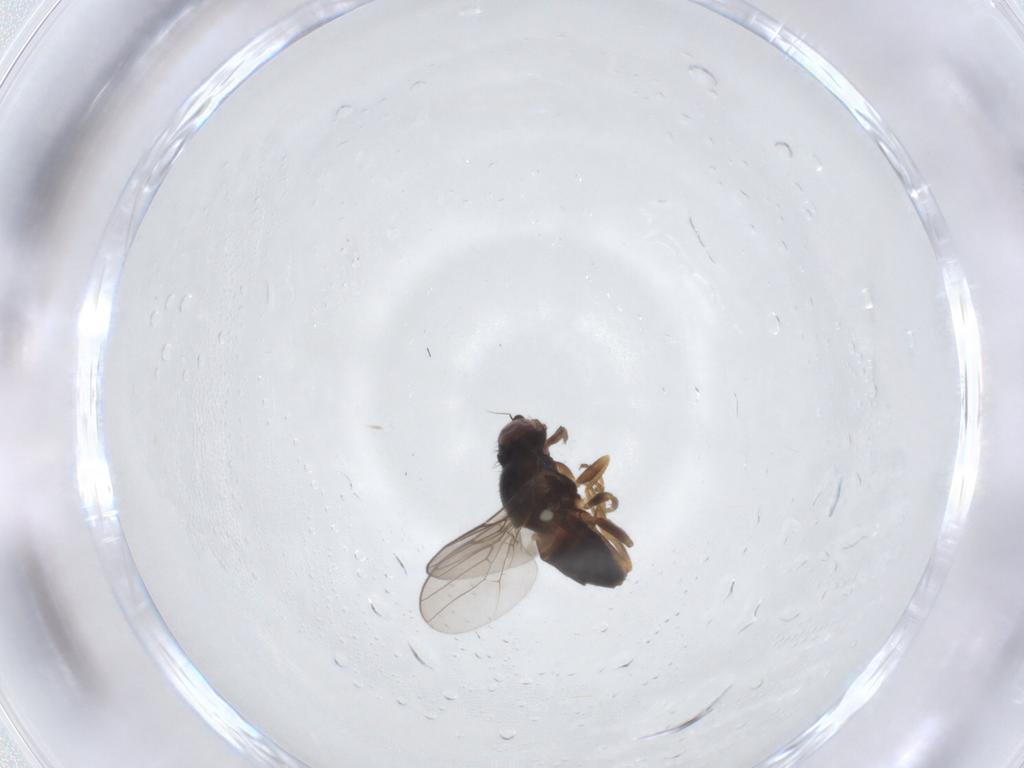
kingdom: Animalia
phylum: Arthropoda
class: Insecta
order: Diptera
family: Chloropidae
